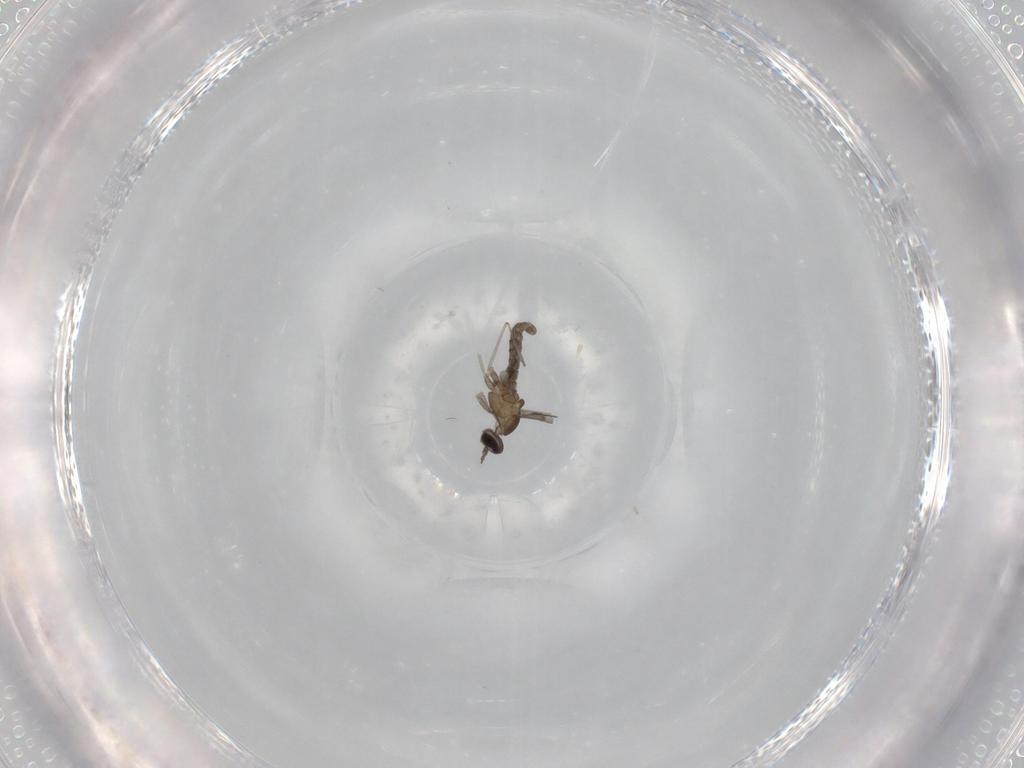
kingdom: Animalia
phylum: Arthropoda
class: Insecta
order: Diptera
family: Cecidomyiidae
